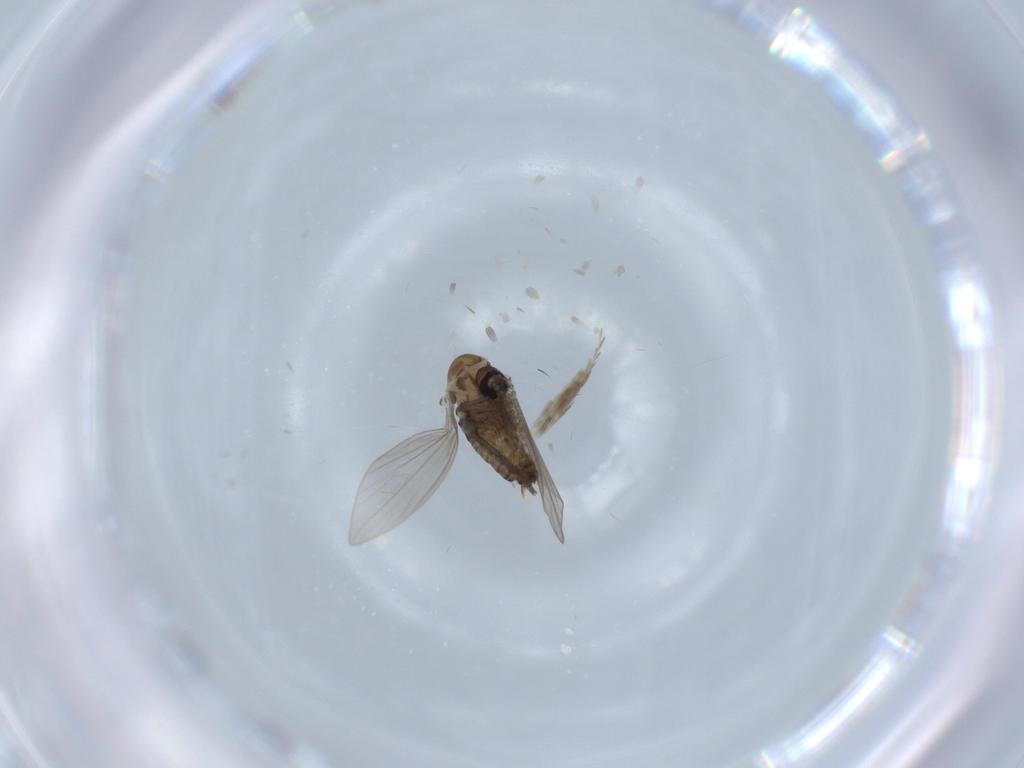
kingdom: Animalia
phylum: Arthropoda
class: Insecta
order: Diptera
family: Psychodidae
